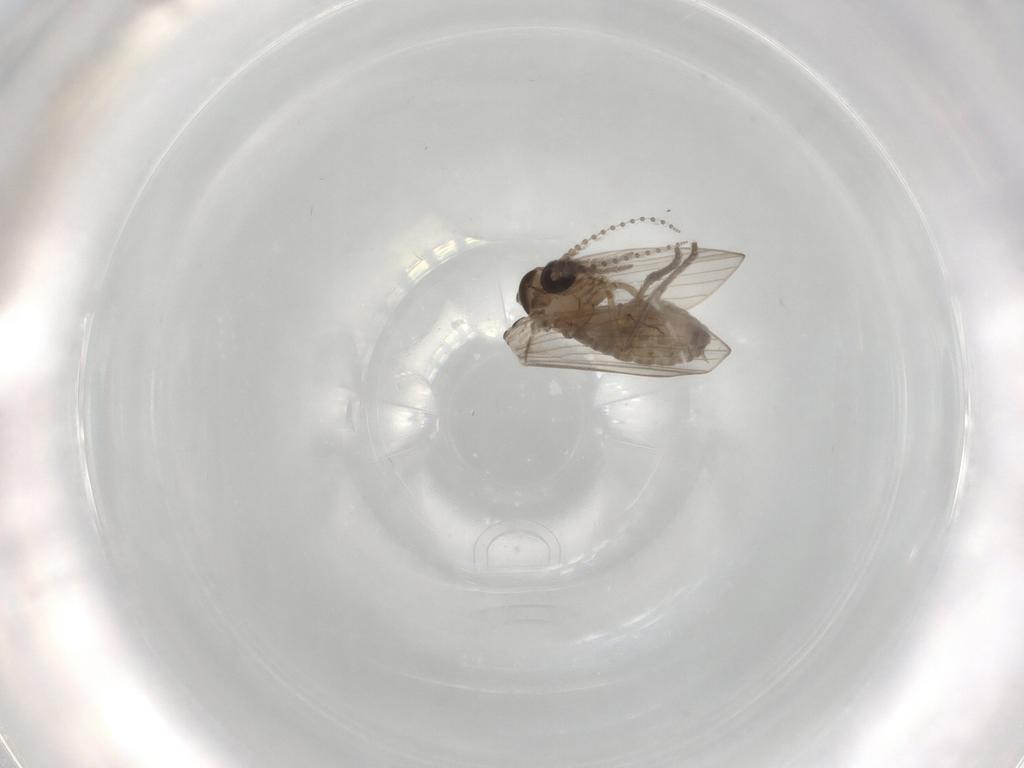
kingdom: Animalia
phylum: Arthropoda
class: Insecta
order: Diptera
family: Psychodidae
